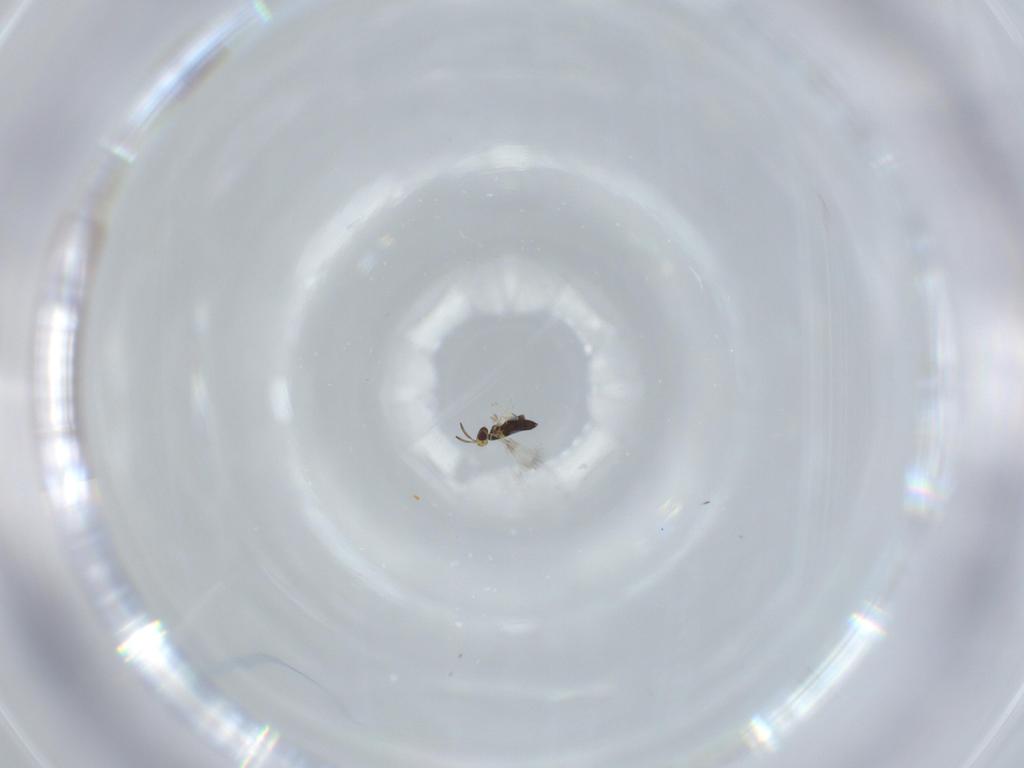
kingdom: Animalia
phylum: Arthropoda
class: Insecta
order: Hymenoptera
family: Signiphoridae
